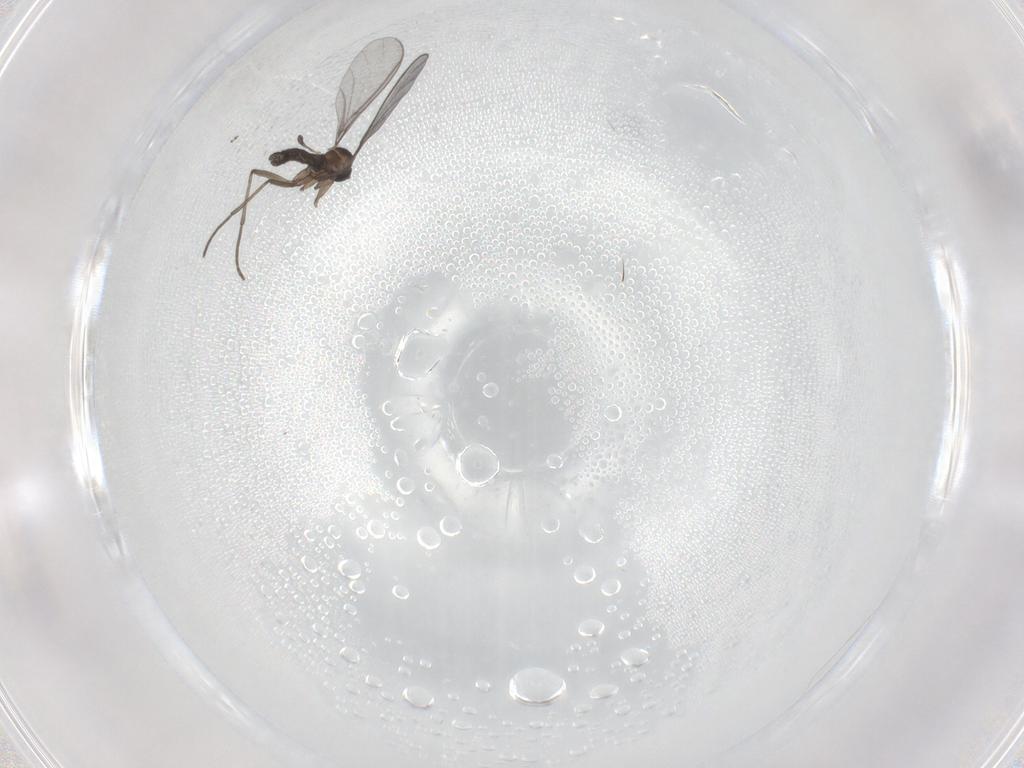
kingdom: Animalia
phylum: Arthropoda
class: Insecta
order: Diptera
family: Sciaridae
